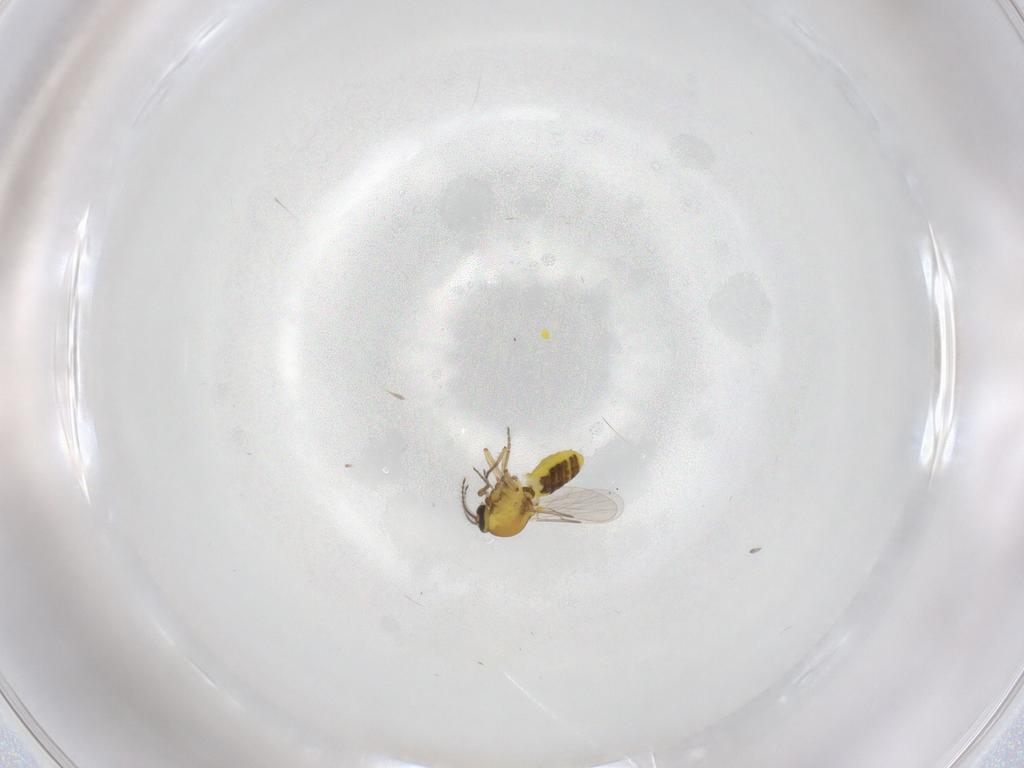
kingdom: Animalia
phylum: Arthropoda
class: Insecta
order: Diptera
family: Ceratopogonidae
